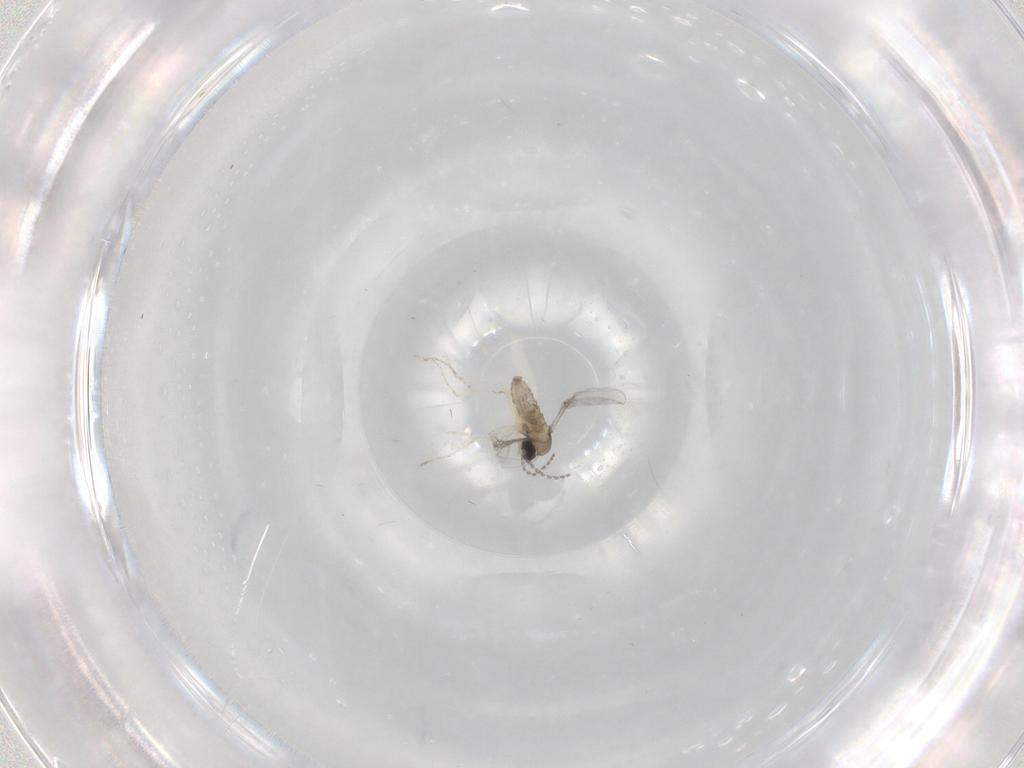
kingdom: Animalia
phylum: Arthropoda
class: Insecta
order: Diptera
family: Cecidomyiidae
